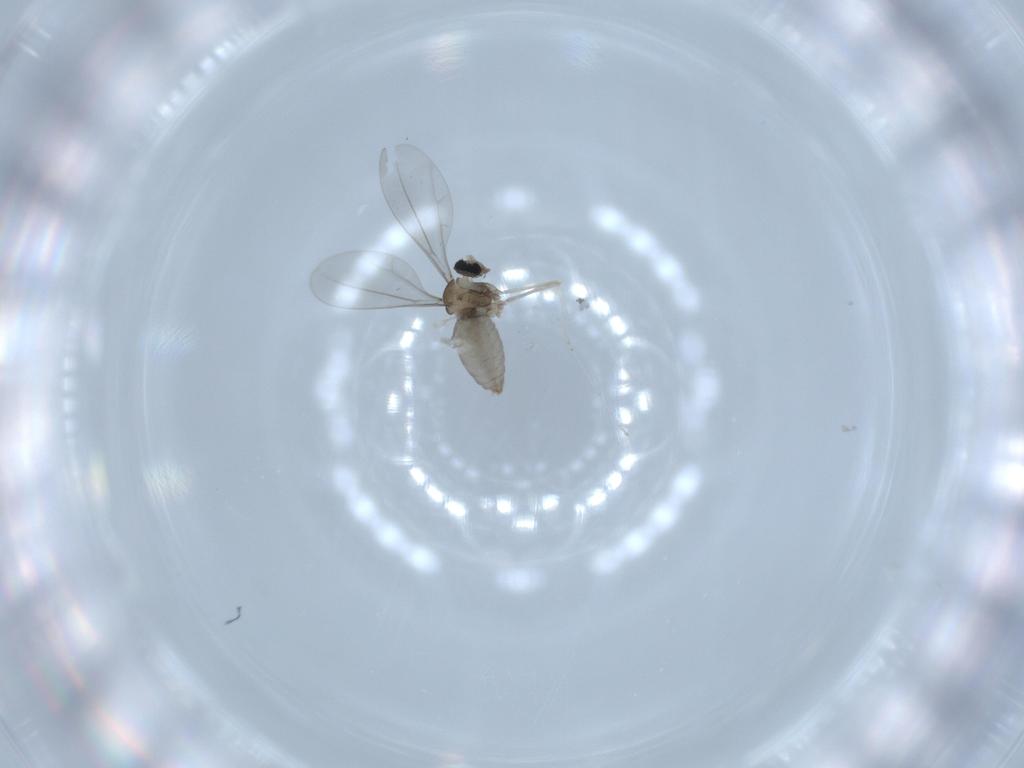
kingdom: Animalia
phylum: Arthropoda
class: Insecta
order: Diptera
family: Cecidomyiidae
